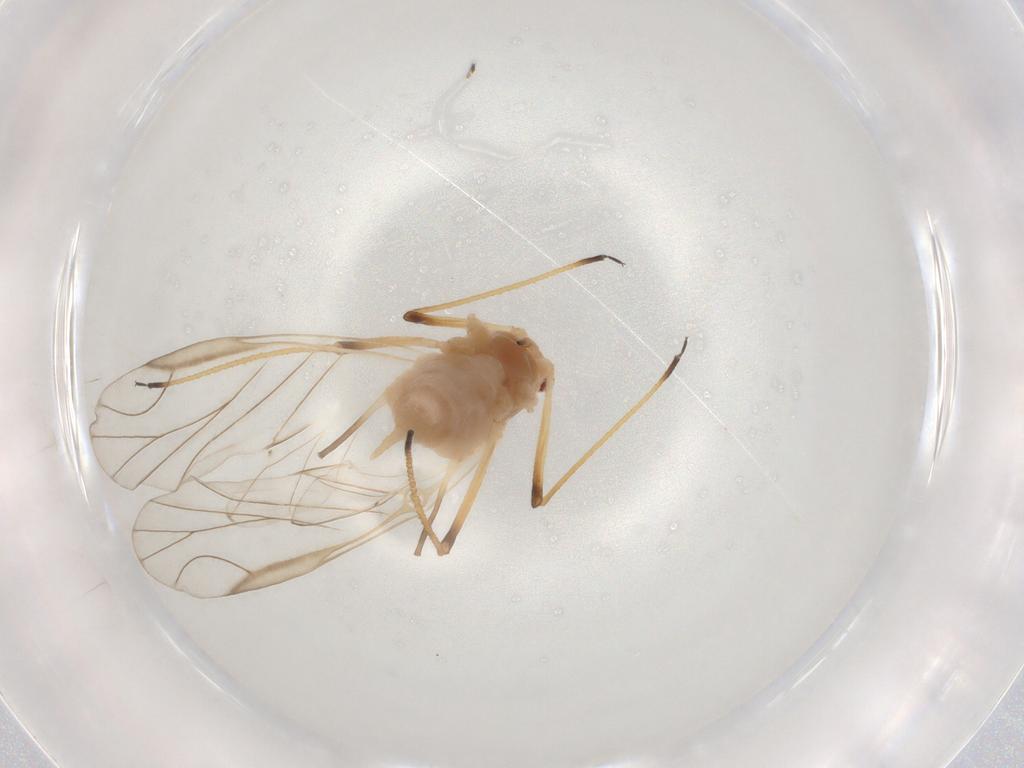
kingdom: Animalia
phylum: Arthropoda
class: Insecta
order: Hemiptera
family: Aphididae
